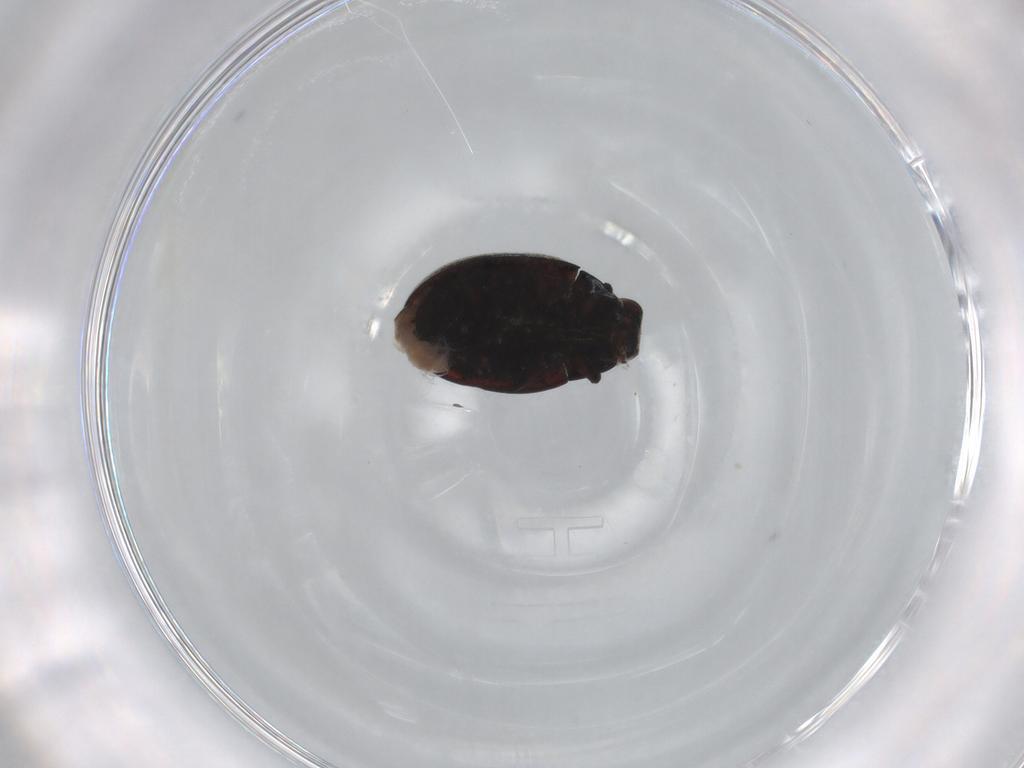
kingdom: Animalia
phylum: Arthropoda
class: Insecta
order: Coleoptera
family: Limnichidae
